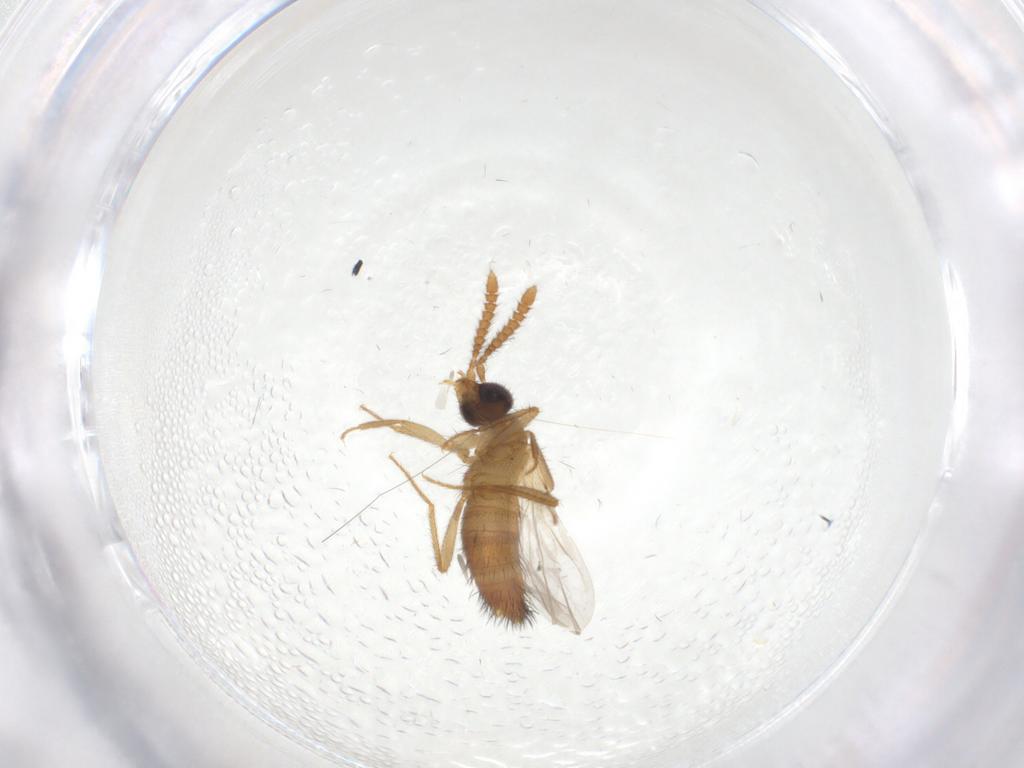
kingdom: Animalia
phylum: Arthropoda
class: Insecta
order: Coleoptera
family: Staphylinidae
